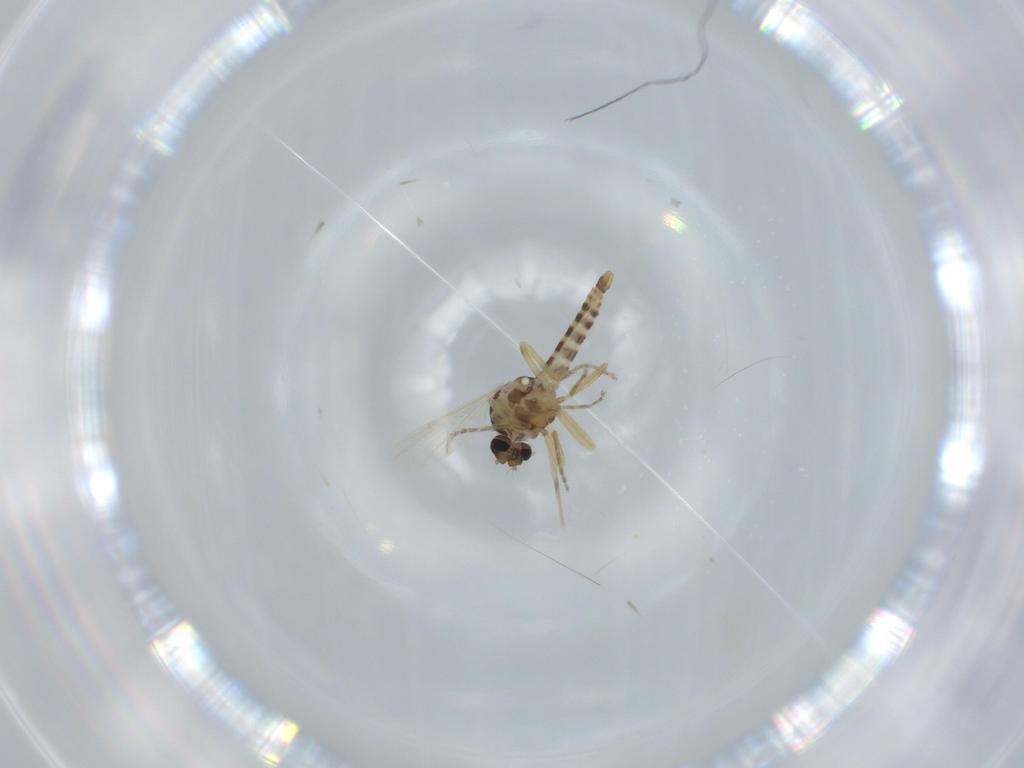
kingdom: Animalia
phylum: Arthropoda
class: Insecta
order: Diptera
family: Ceratopogonidae
